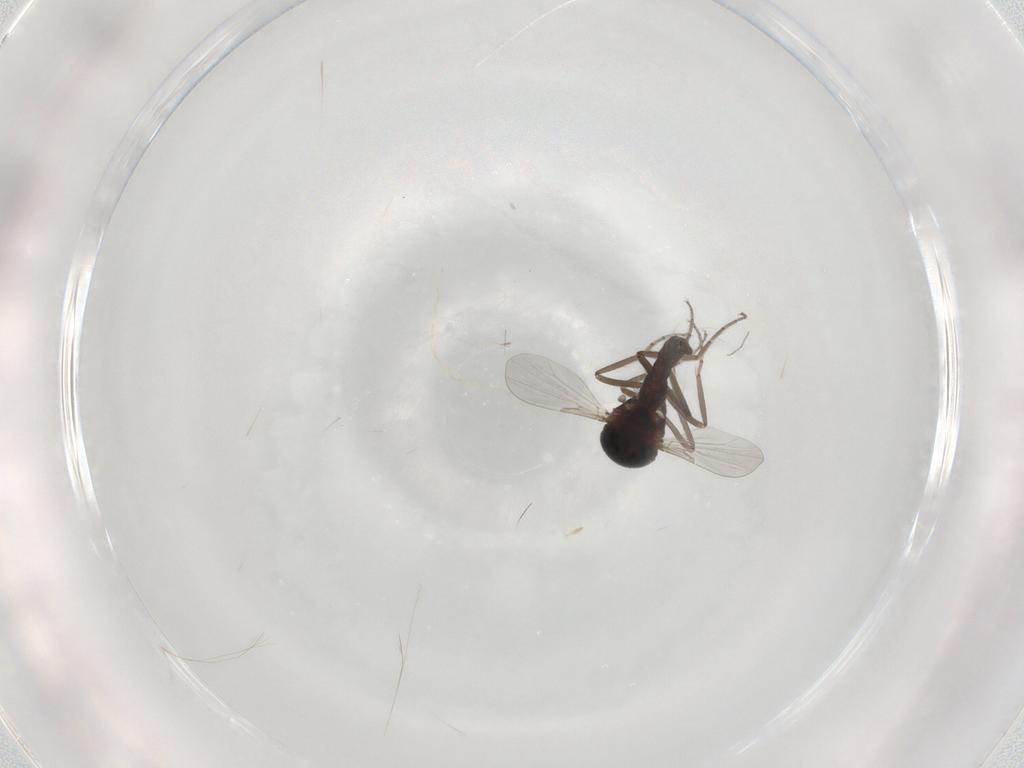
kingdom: Animalia
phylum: Arthropoda
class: Insecta
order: Diptera
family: Ceratopogonidae
